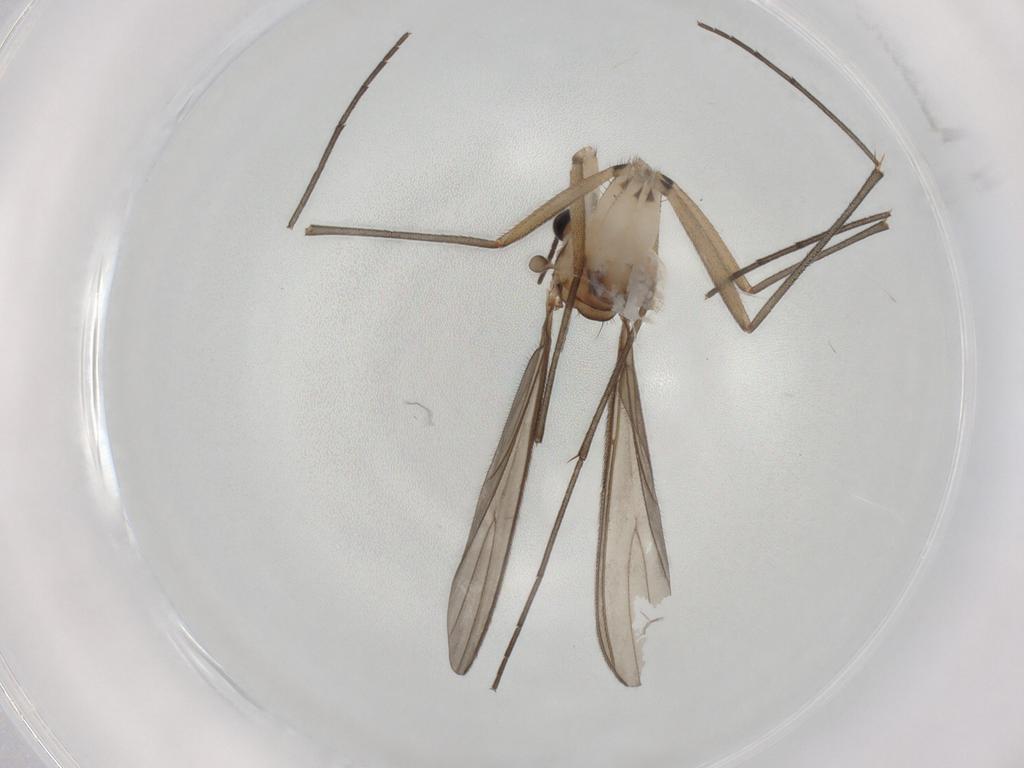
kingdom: Animalia
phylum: Arthropoda
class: Insecta
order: Diptera
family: Sciaridae
